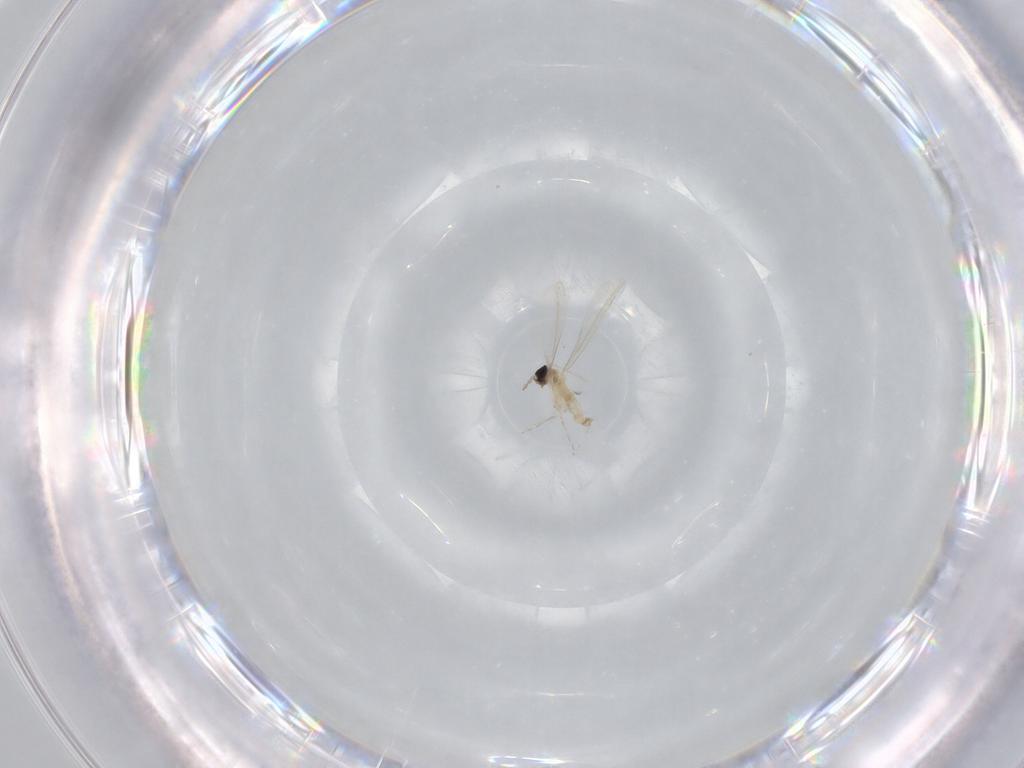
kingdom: Animalia
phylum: Arthropoda
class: Insecta
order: Diptera
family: Cecidomyiidae
